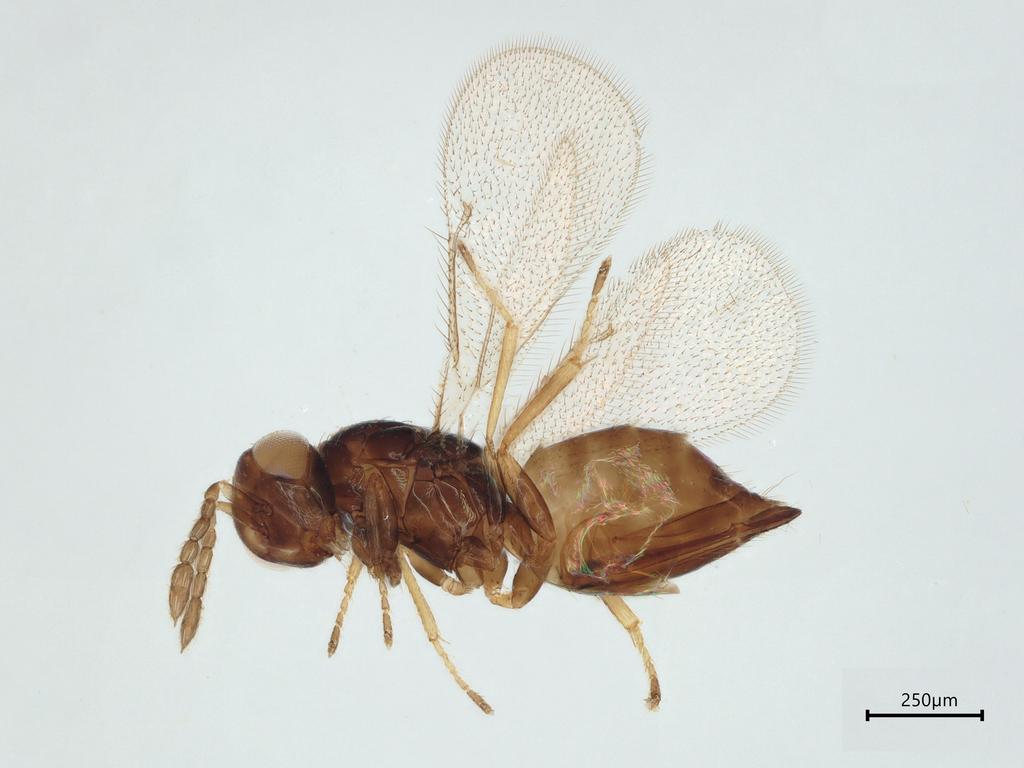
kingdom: Animalia
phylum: Arthropoda
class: Insecta
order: Hymenoptera
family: Eulophidae
